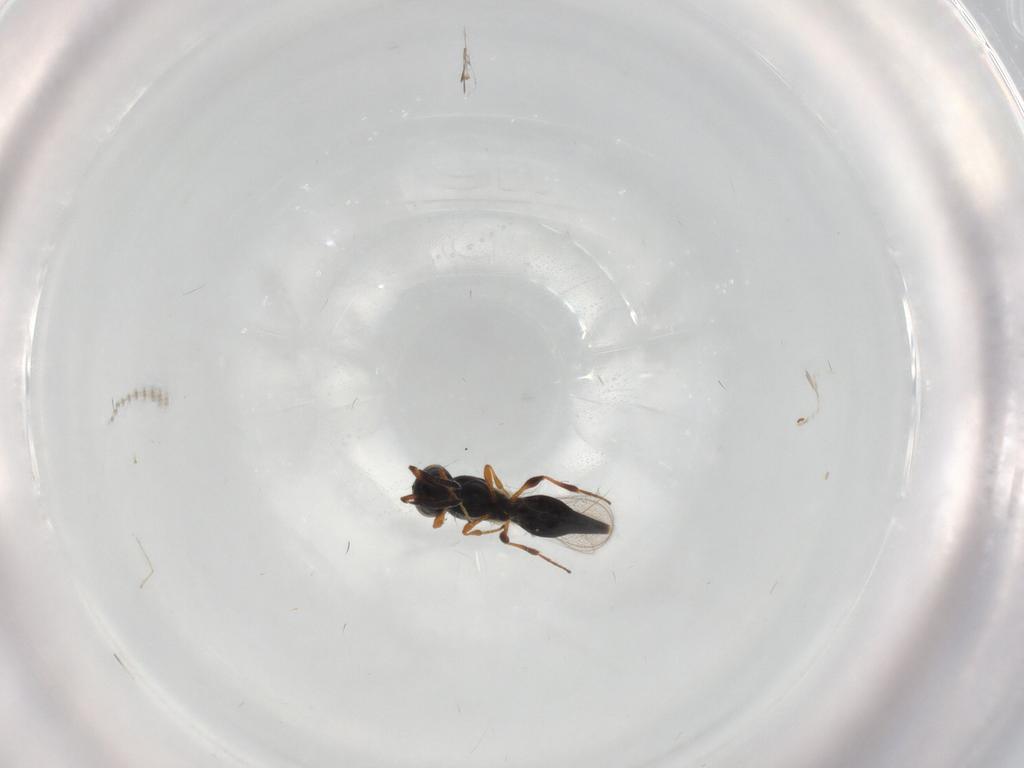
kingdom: Animalia
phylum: Arthropoda
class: Insecta
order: Hymenoptera
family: Platygastridae
